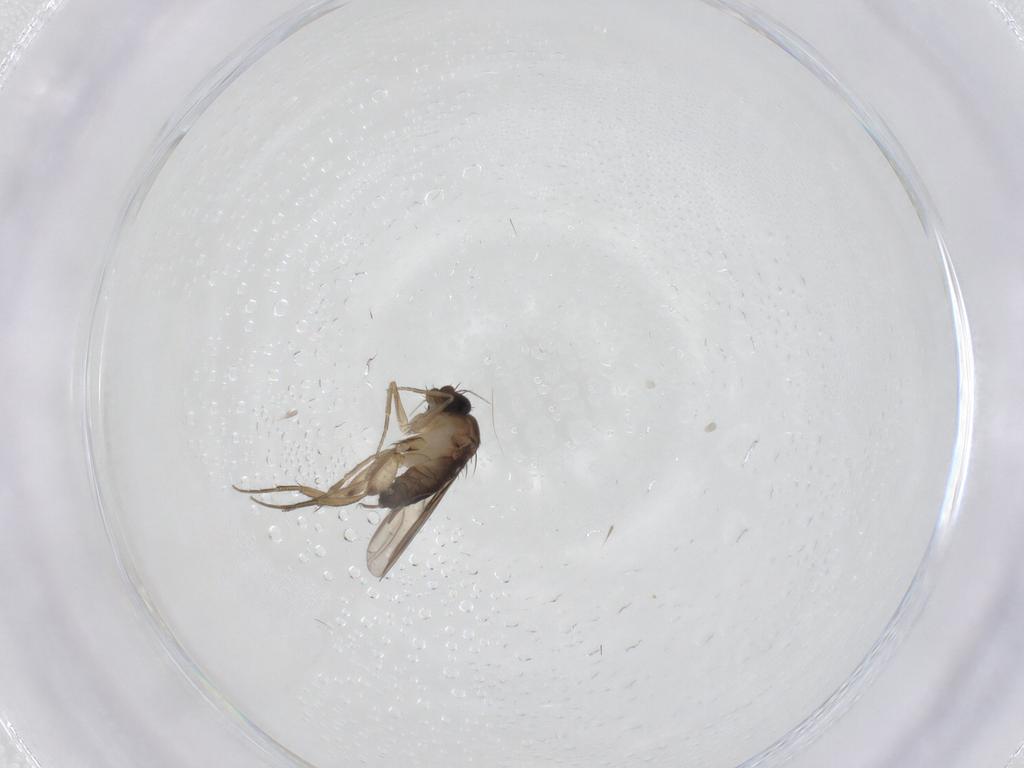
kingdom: Animalia
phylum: Arthropoda
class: Insecta
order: Diptera
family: Phoridae
